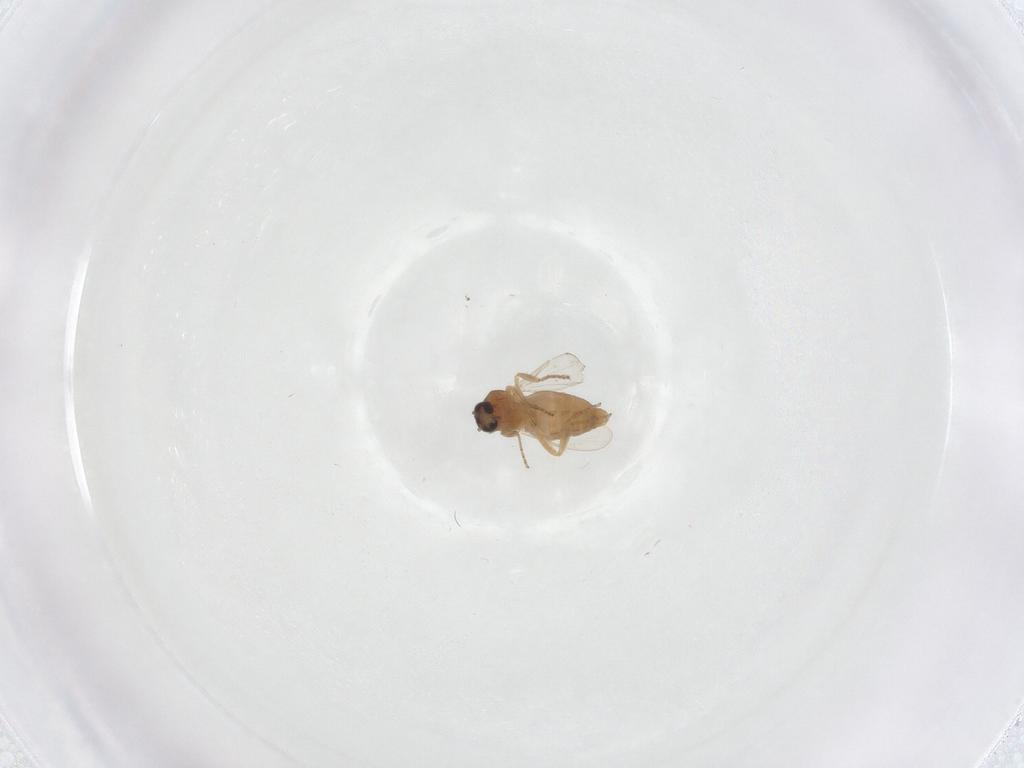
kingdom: Animalia
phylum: Arthropoda
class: Insecta
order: Diptera
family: Ceratopogonidae
